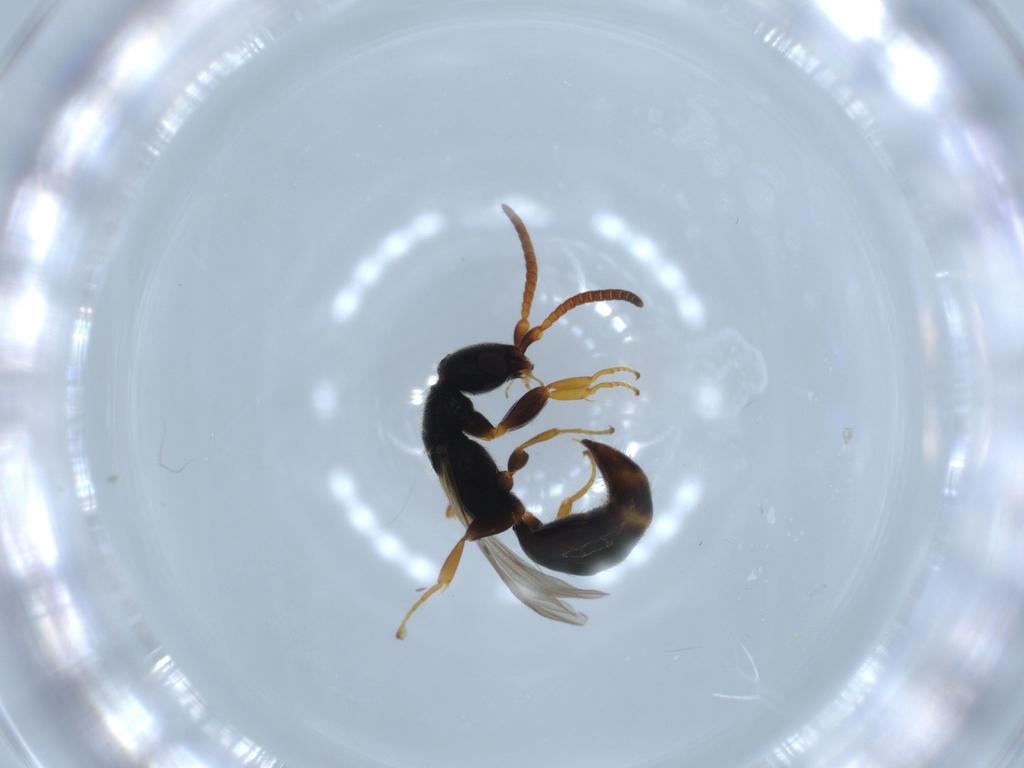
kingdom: Animalia
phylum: Arthropoda
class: Insecta
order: Hymenoptera
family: Bethylidae
